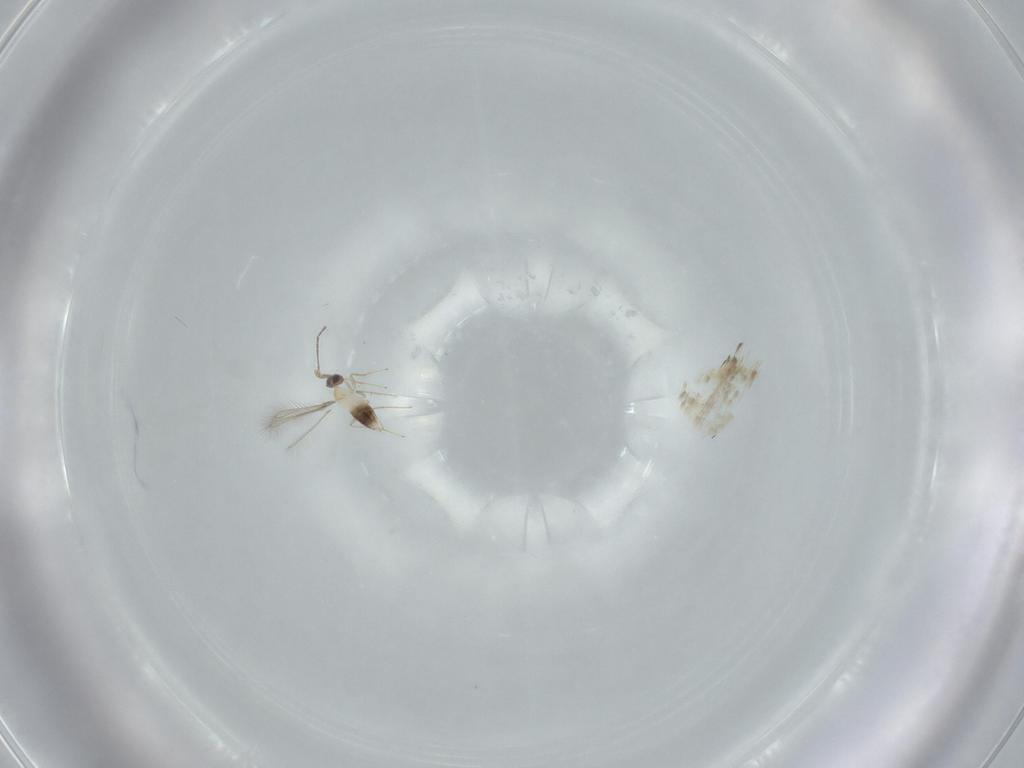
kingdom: Animalia
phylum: Arthropoda
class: Insecta
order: Hymenoptera
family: Mymaridae
